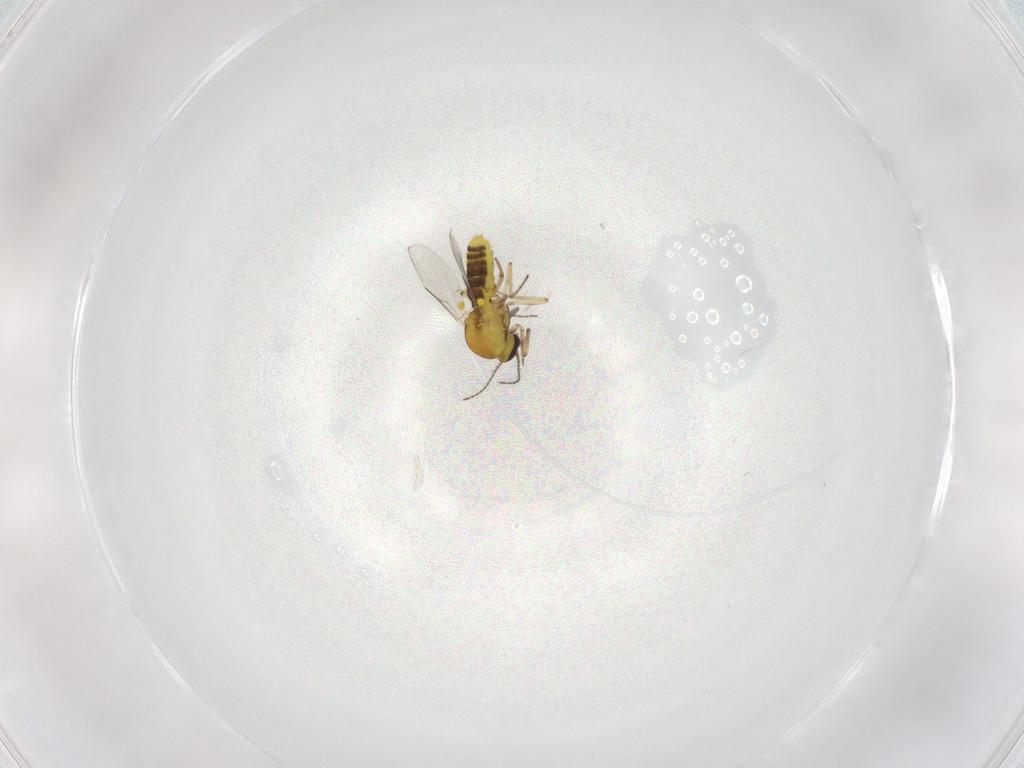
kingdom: Animalia
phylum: Arthropoda
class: Insecta
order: Diptera
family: Ceratopogonidae
